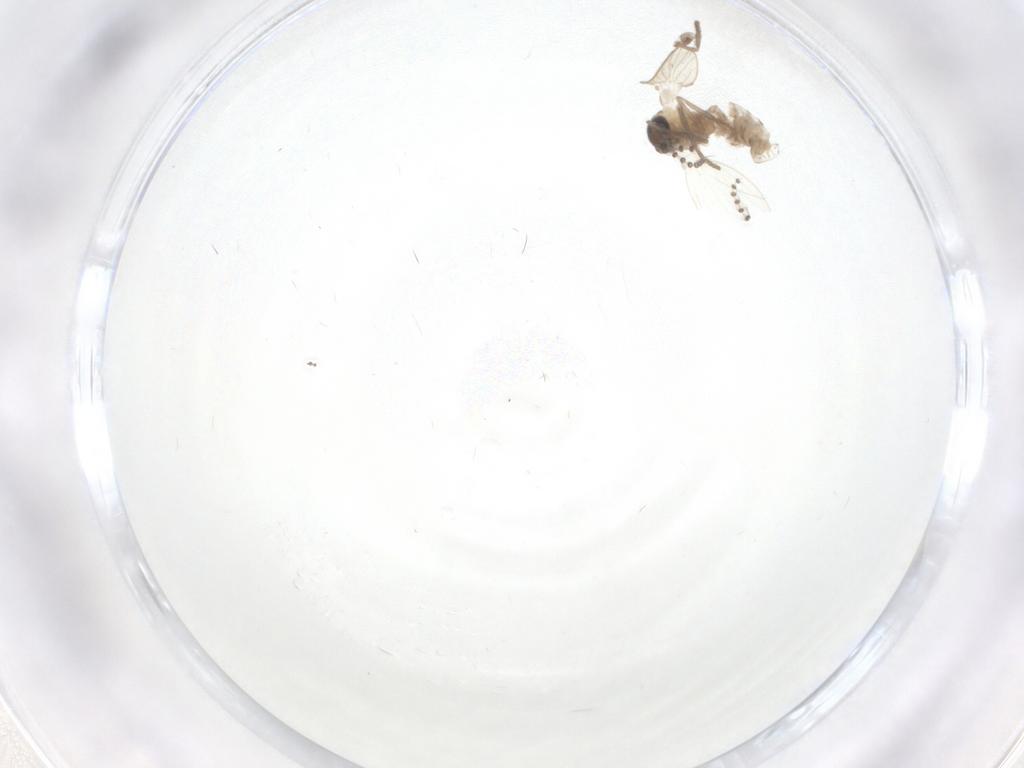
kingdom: Animalia
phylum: Arthropoda
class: Insecta
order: Diptera
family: Psychodidae
